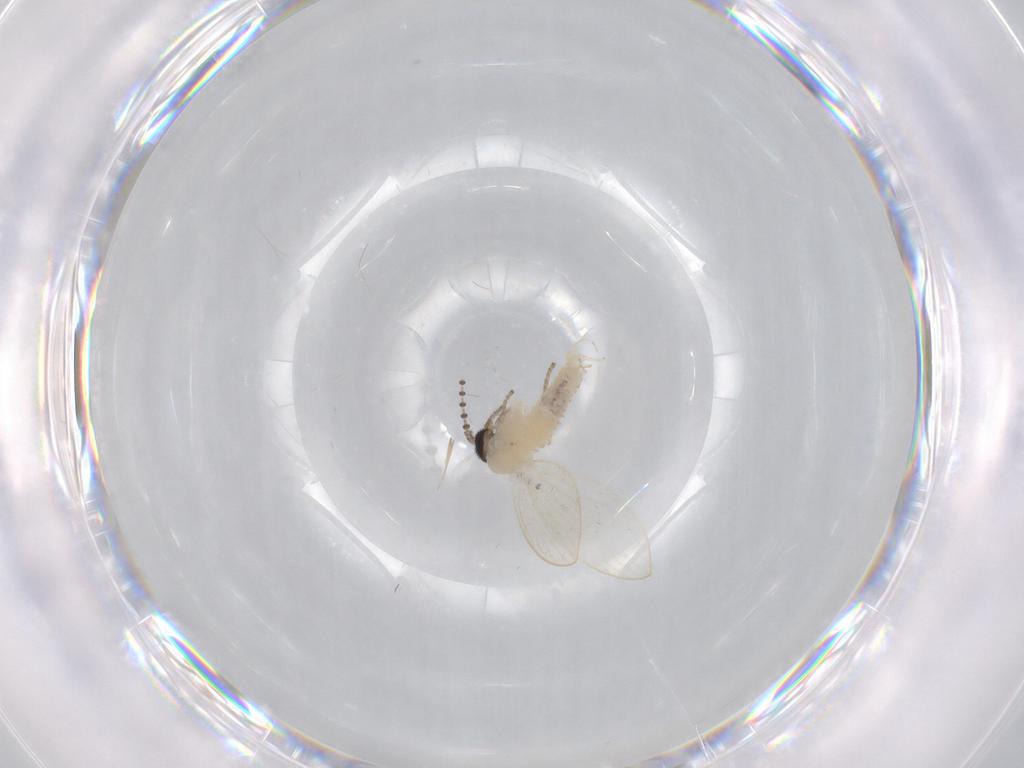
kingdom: Animalia
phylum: Arthropoda
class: Insecta
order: Diptera
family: Psychodidae
